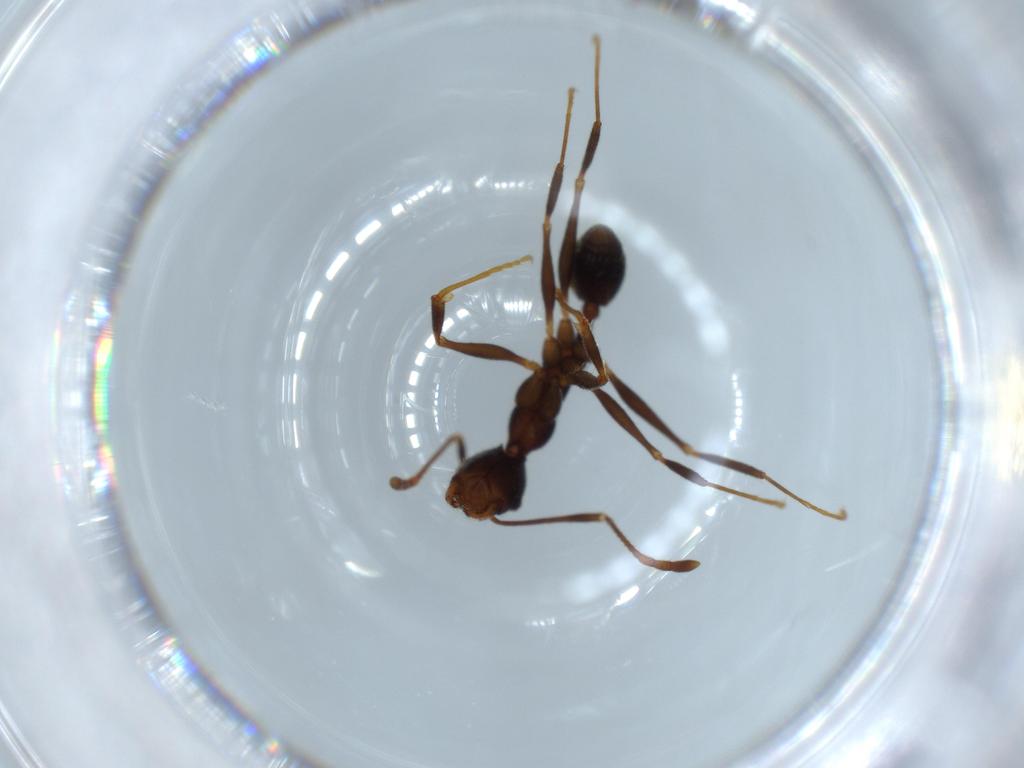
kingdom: Animalia
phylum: Arthropoda
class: Insecta
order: Hymenoptera
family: Formicidae
